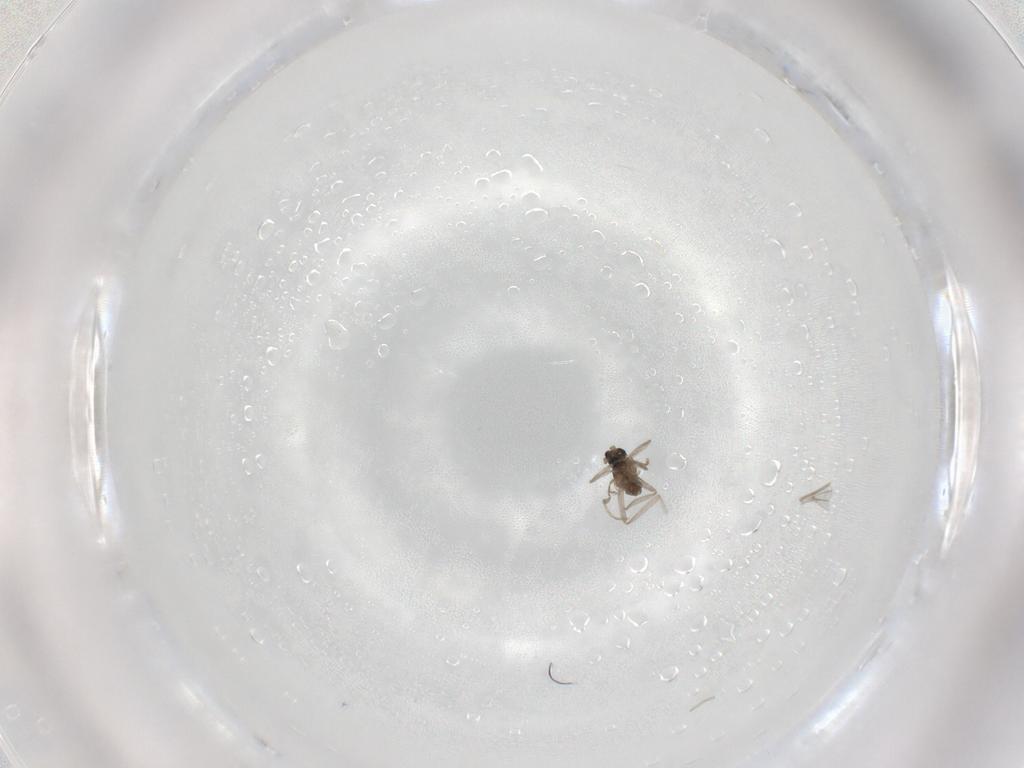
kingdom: Animalia
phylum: Arthropoda
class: Insecta
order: Diptera
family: Cecidomyiidae
